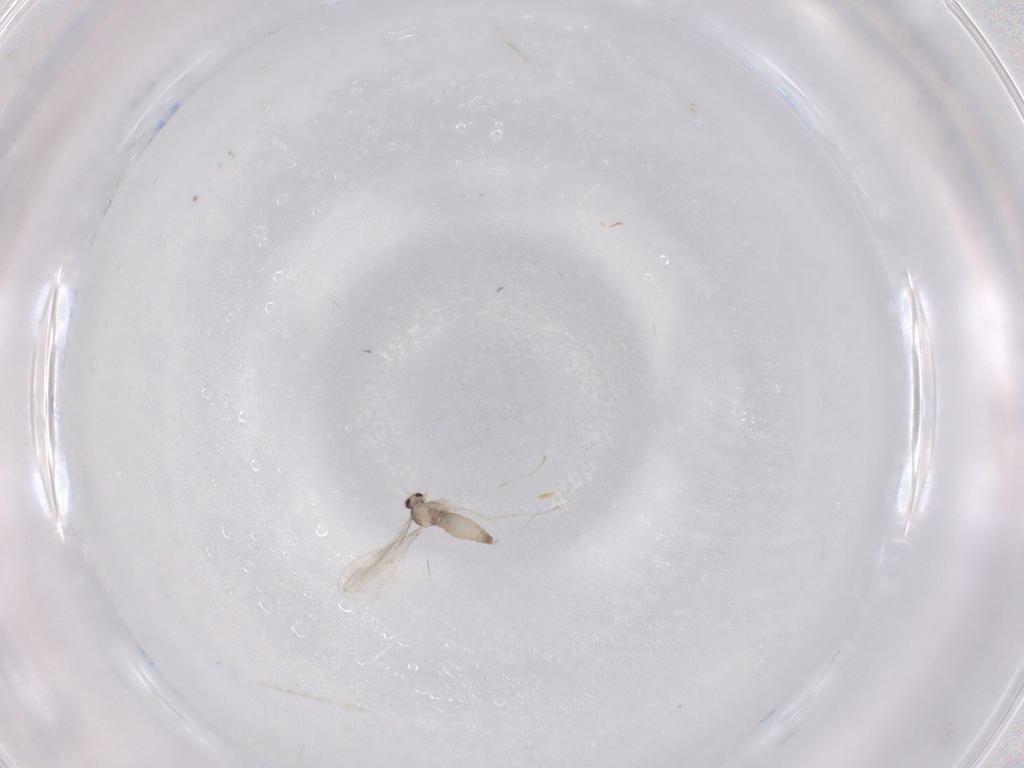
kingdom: Animalia
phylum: Arthropoda
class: Insecta
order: Diptera
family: Cecidomyiidae
